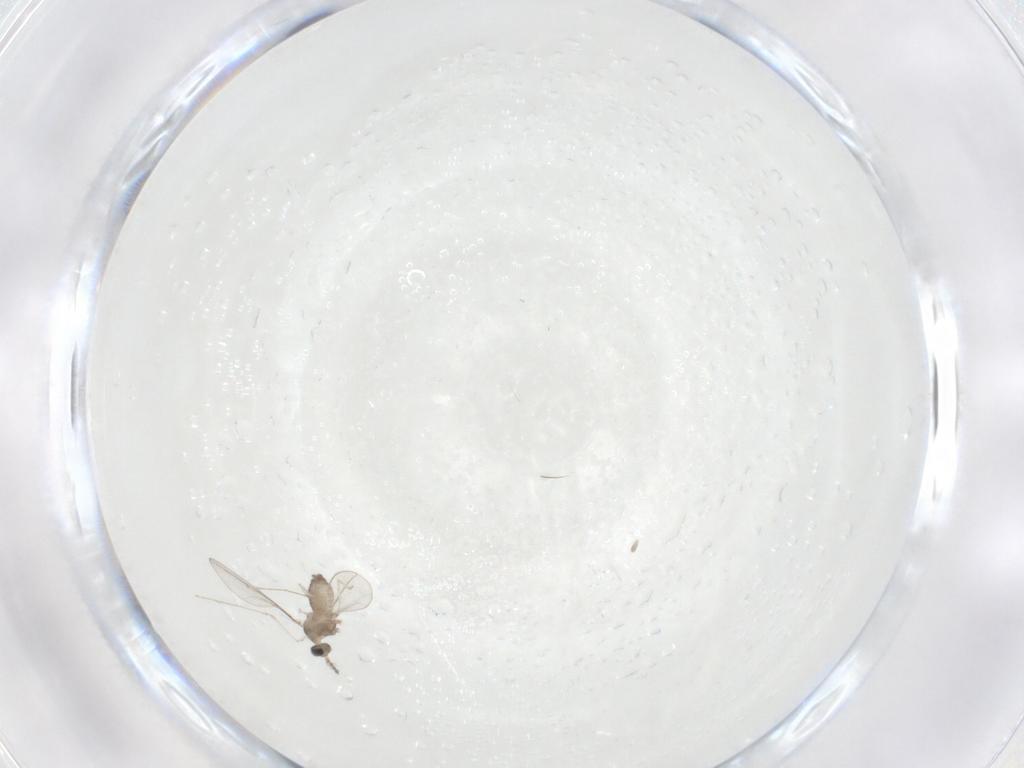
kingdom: Animalia
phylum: Arthropoda
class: Insecta
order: Diptera
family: Cecidomyiidae
